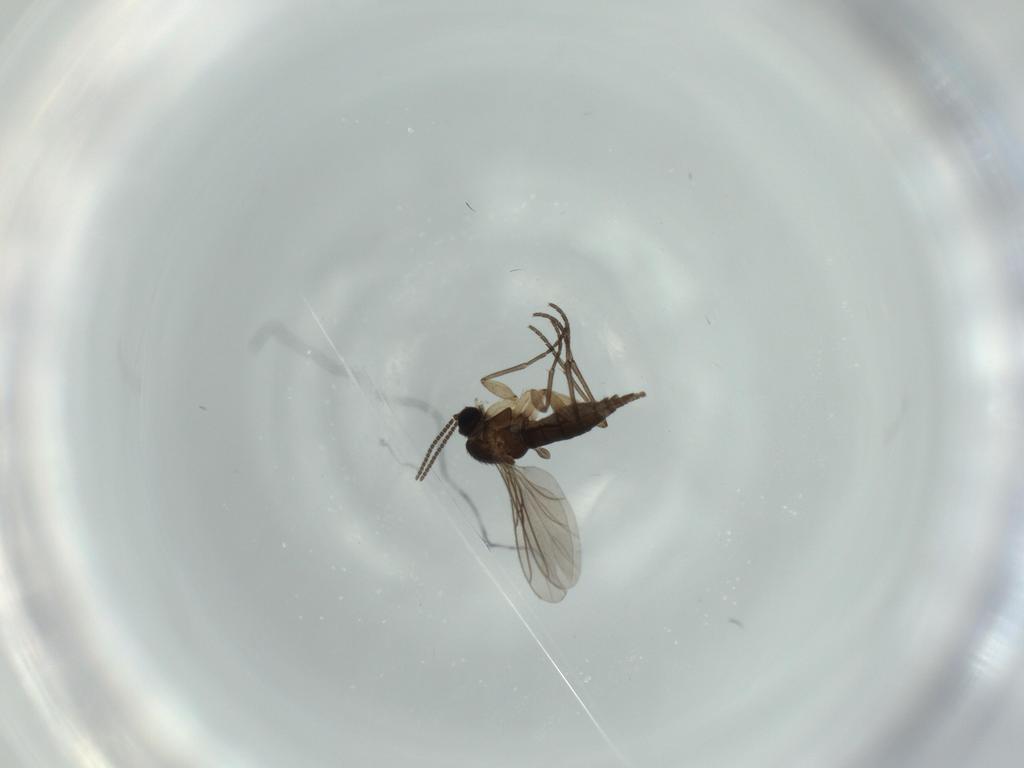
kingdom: Animalia
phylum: Arthropoda
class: Insecta
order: Diptera
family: Sciaridae
